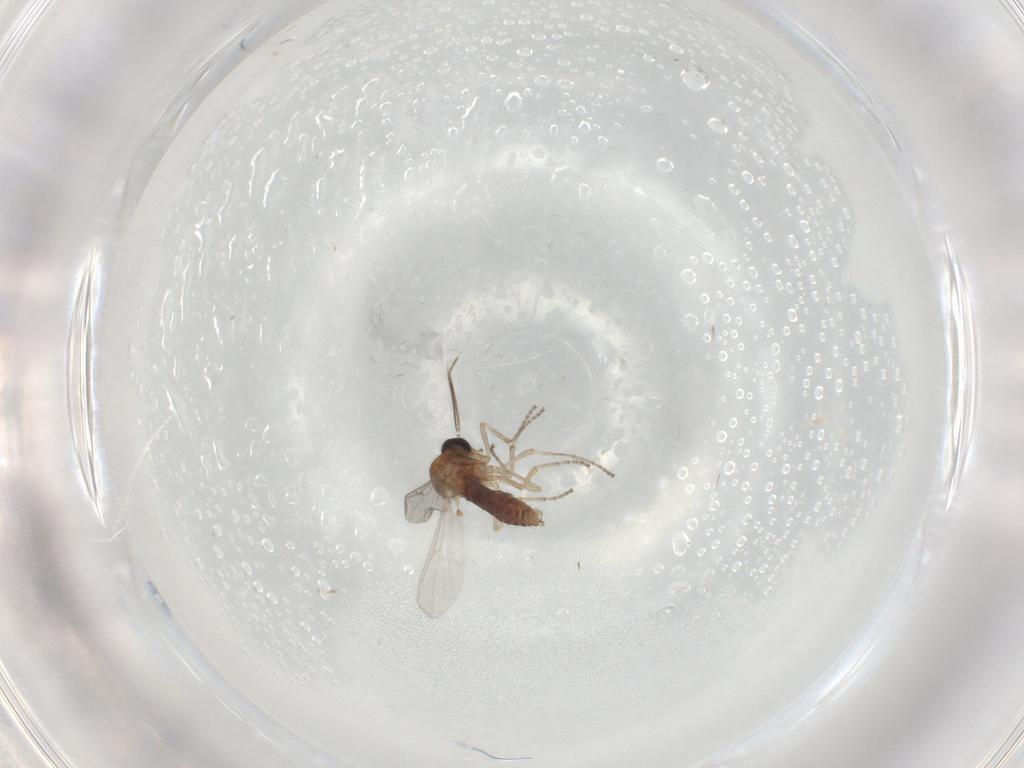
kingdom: Animalia
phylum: Arthropoda
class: Insecta
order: Diptera
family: Ceratopogonidae
